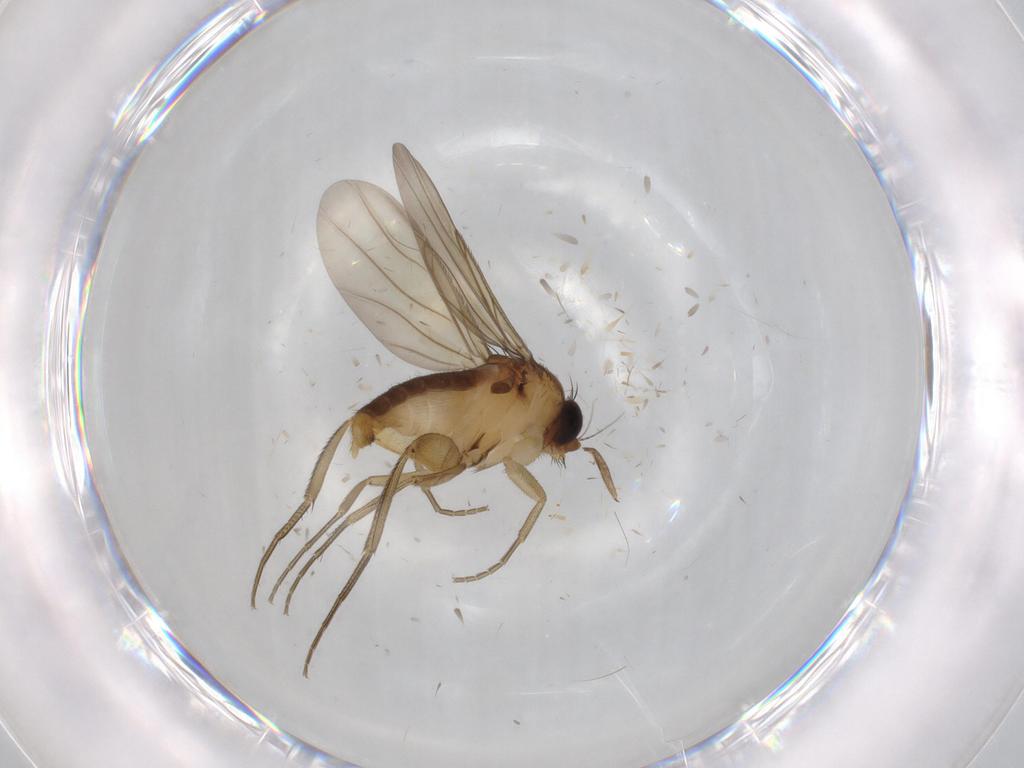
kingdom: Animalia
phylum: Arthropoda
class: Insecta
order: Diptera
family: Phoridae
